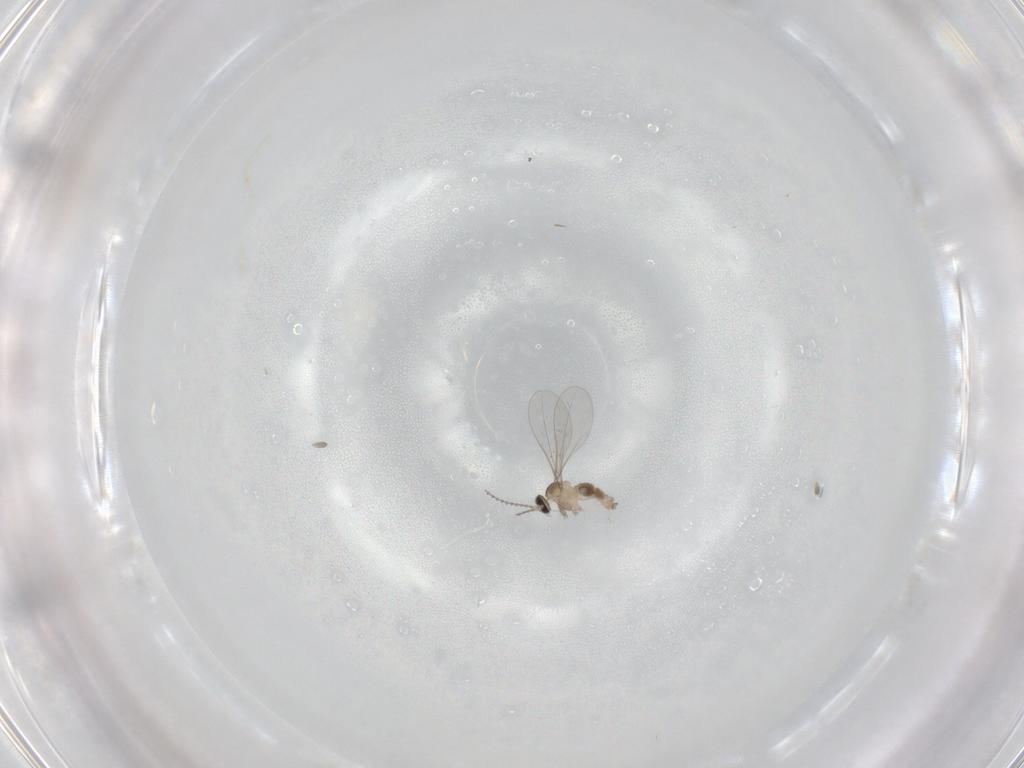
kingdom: Animalia
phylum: Arthropoda
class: Insecta
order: Diptera
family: Cecidomyiidae
